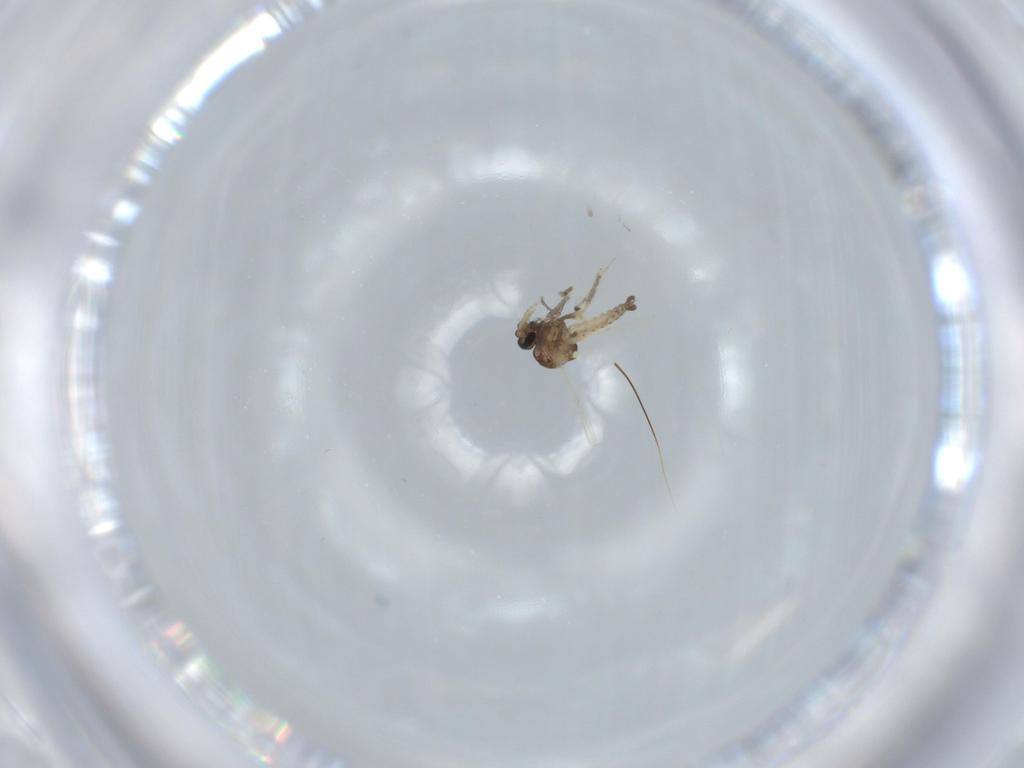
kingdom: Animalia
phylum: Arthropoda
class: Insecta
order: Diptera
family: Ceratopogonidae
